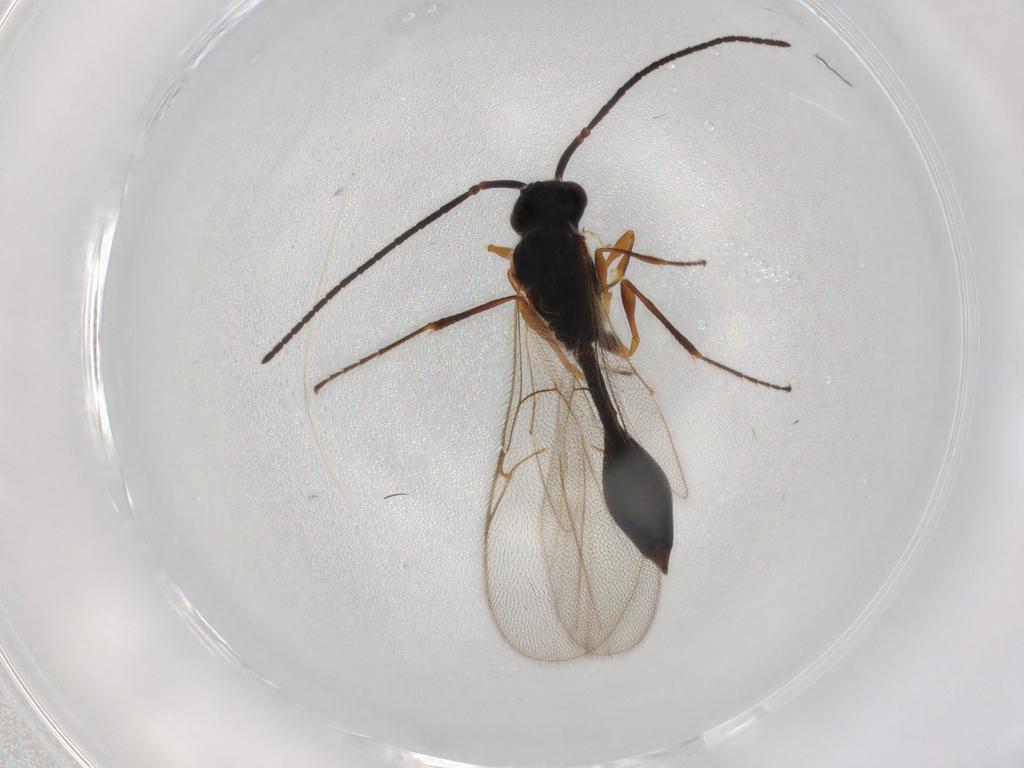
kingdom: Animalia
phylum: Arthropoda
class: Insecta
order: Hymenoptera
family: Diapriidae
